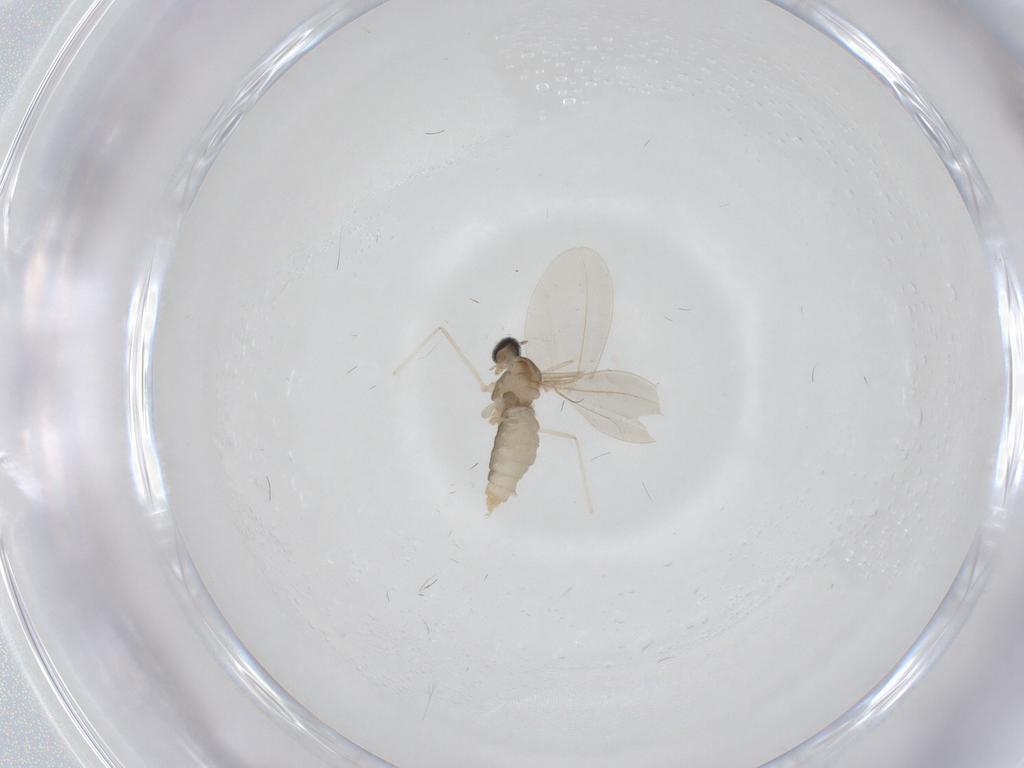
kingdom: Animalia
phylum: Arthropoda
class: Insecta
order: Diptera
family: Cecidomyiidae
